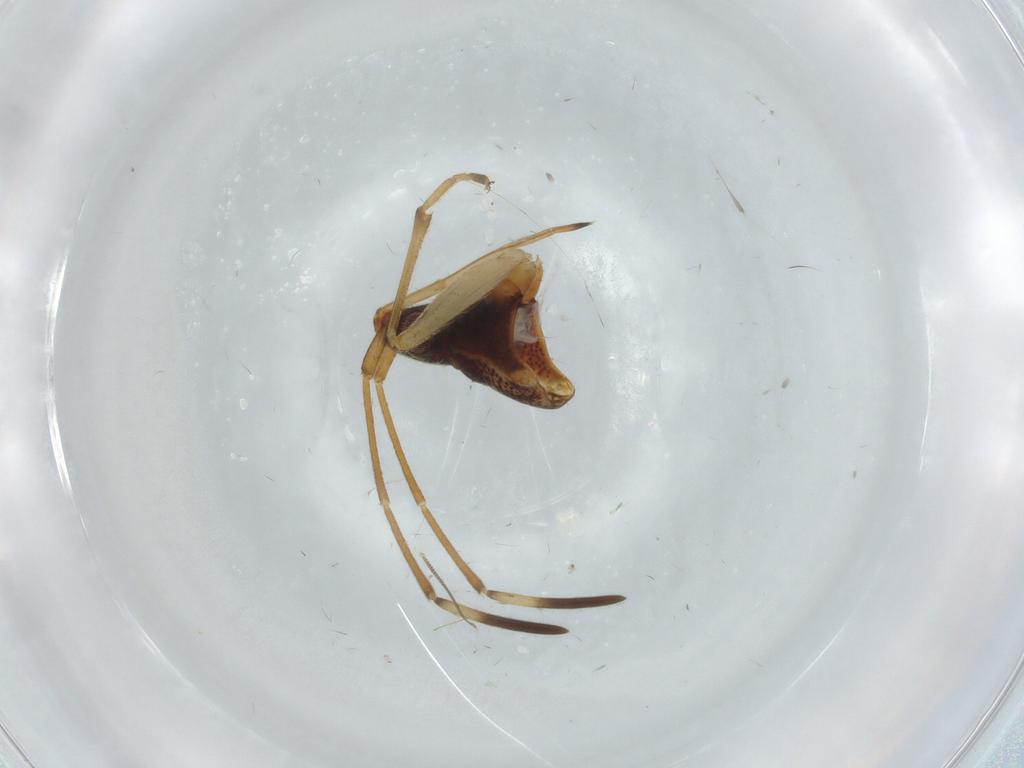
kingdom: Animalia
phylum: Arthropoda
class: Insecta
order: Hemiptera
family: Rhyparochromidae
